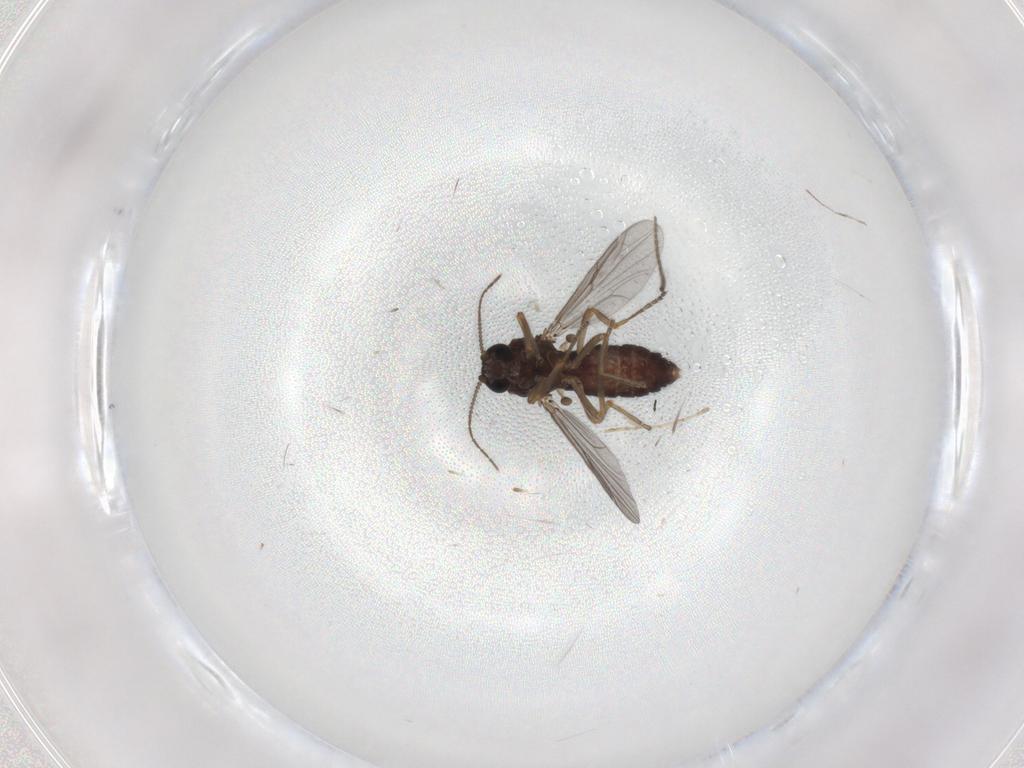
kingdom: Animalia
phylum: Arthropoda
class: Insecta
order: Diptera
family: Ceratopogonidae
